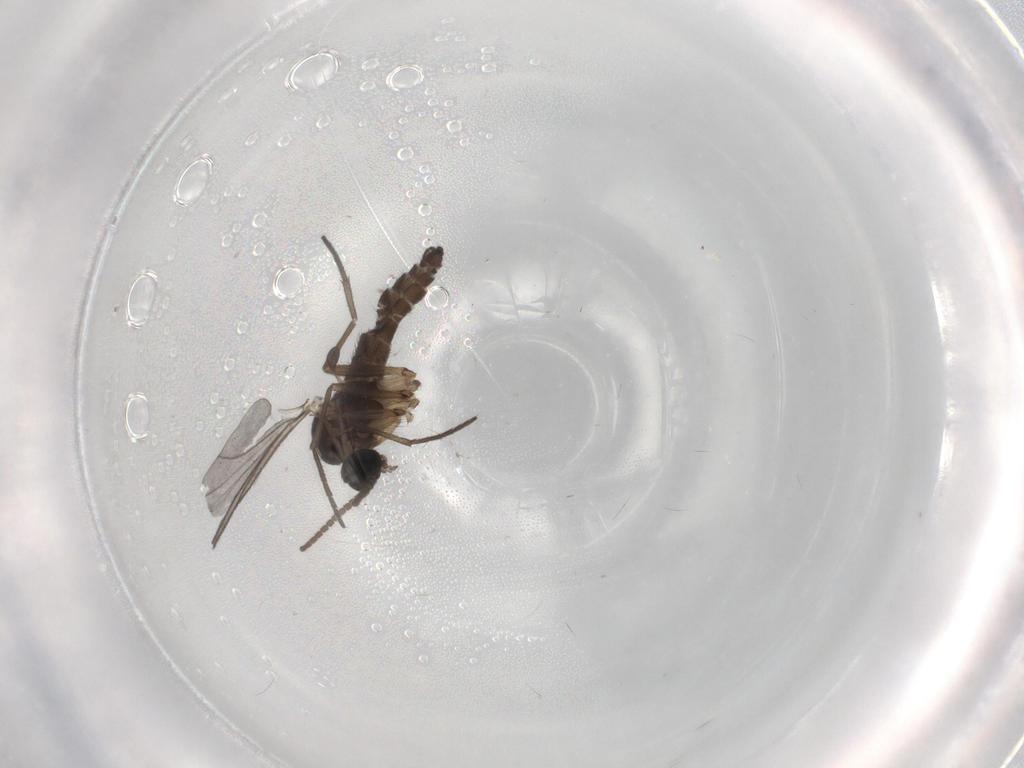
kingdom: Animalia
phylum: Arthropoda
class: Insecta
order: Diptera
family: Sciaridae
